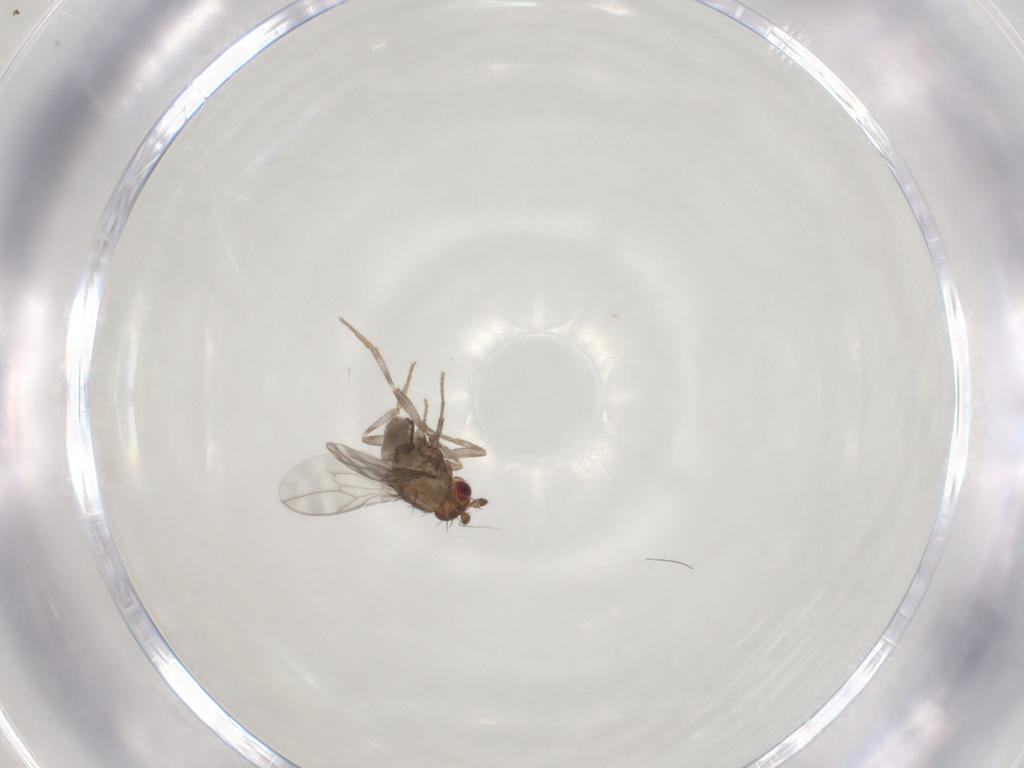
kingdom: Animalia
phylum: Arthropoda
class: Insecta
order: Diptera
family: Sphaeroceridae
